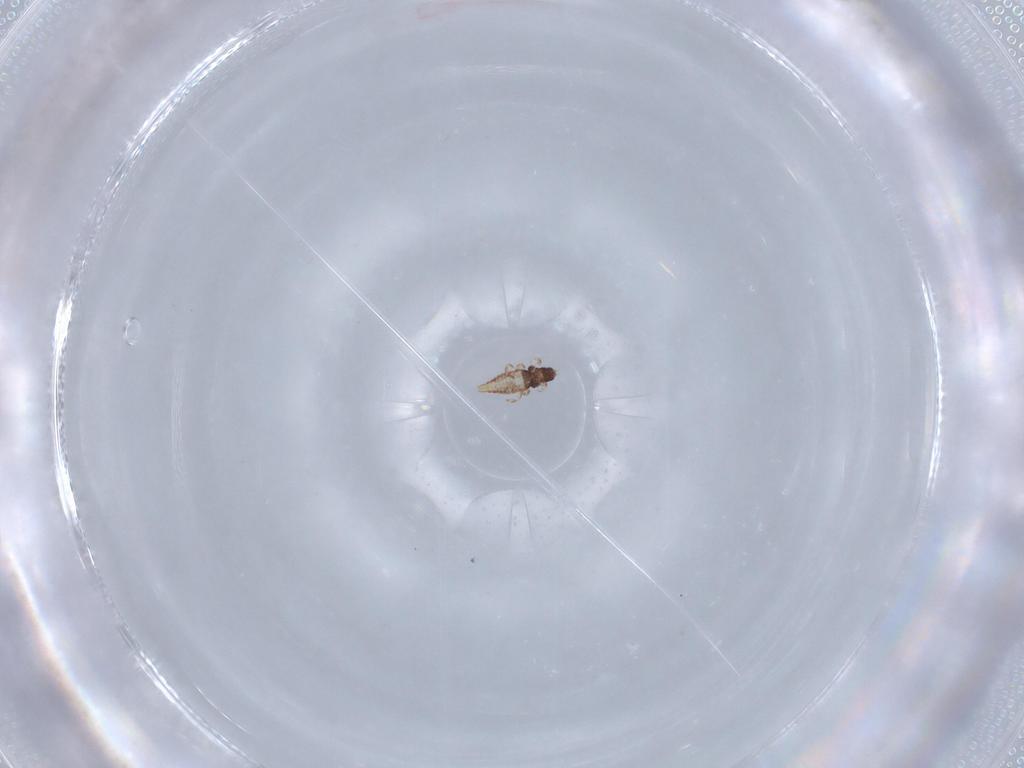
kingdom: Animalia
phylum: Arthropoda
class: Insecta
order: Thysanoptera
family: Phlaeothripidae
